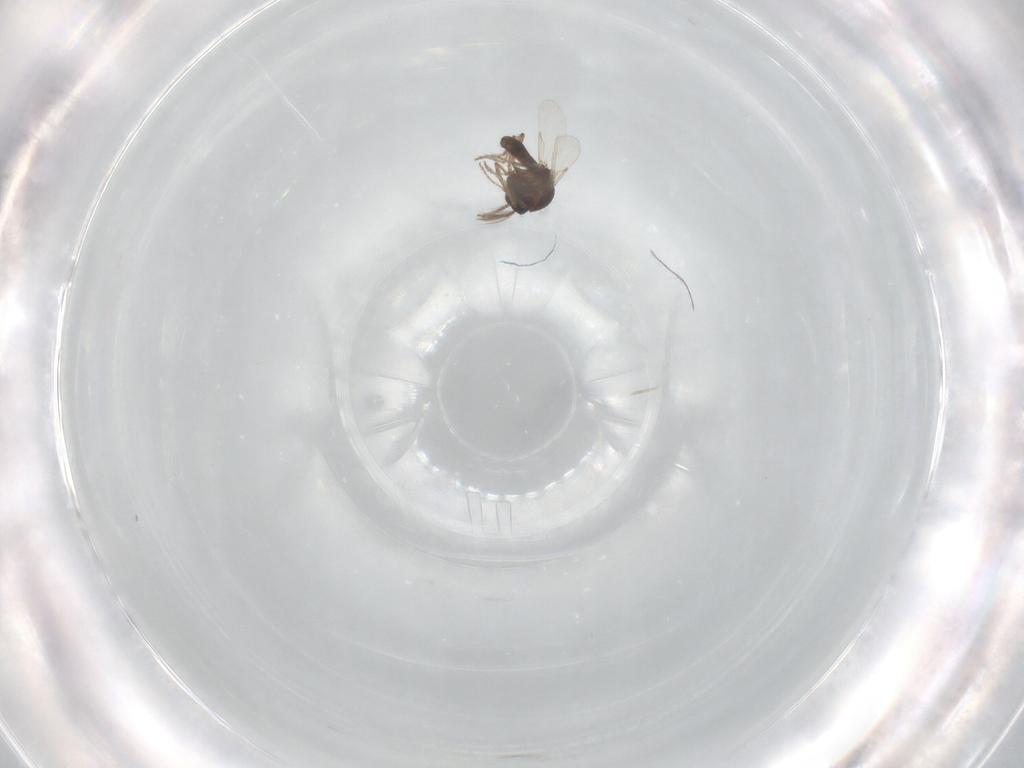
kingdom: Animalia
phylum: Arthropoda
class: Insecta
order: Diptera
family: Ceratopogonidae
